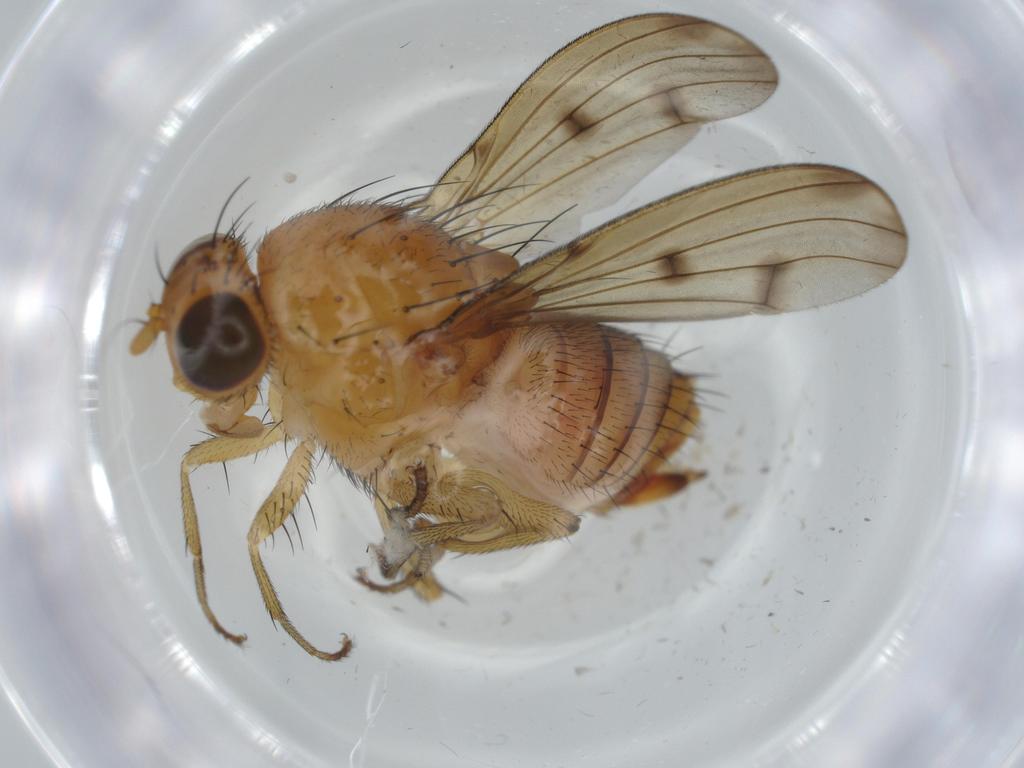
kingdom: Animalia
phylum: Arthropoda
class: Insecta
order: Diptera
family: Lauxaniidae
